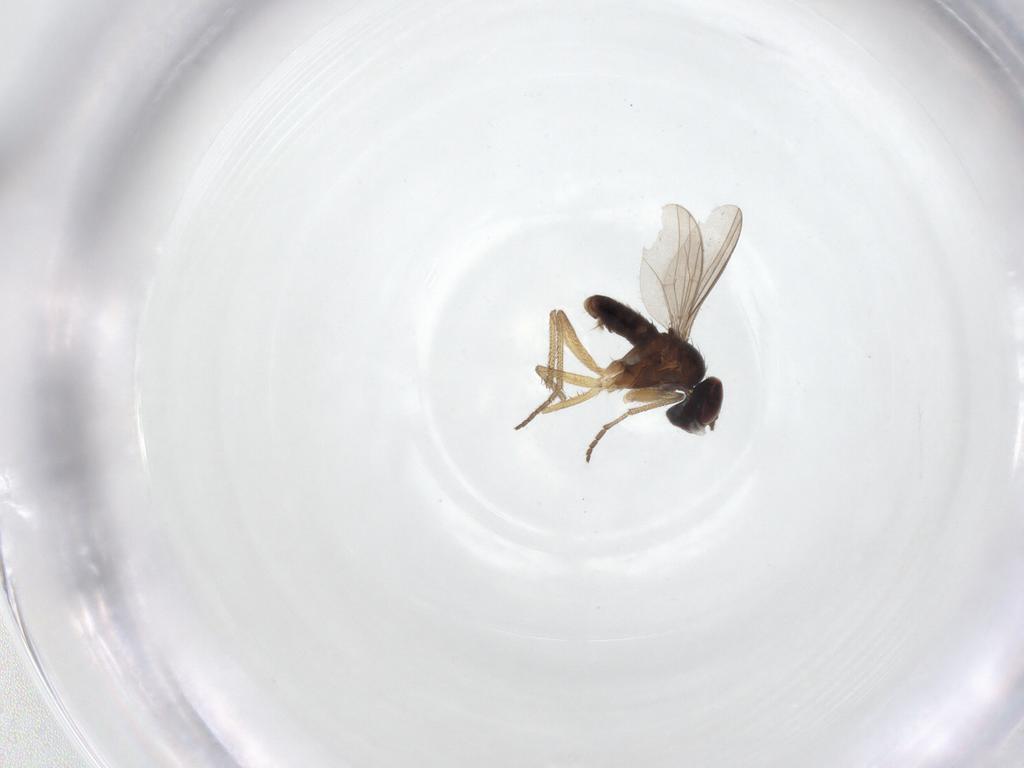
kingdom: Animalia
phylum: Arthropoda
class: Insecta
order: Diptera
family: Dolichopodidae
